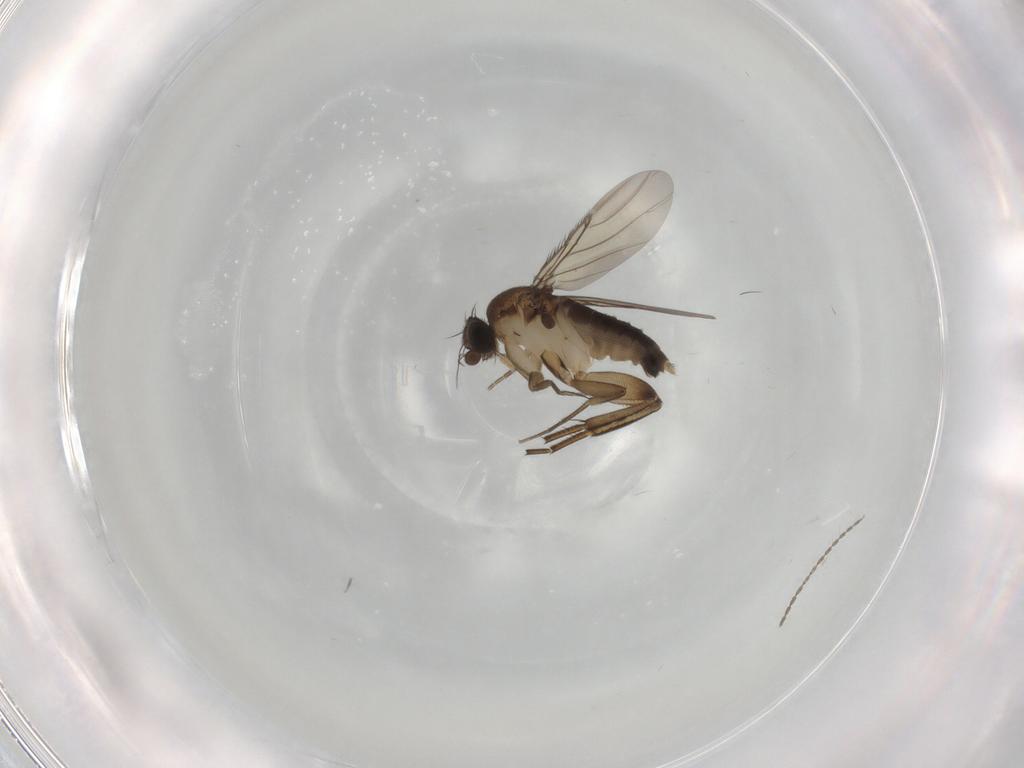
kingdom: Animalia
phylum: Arthropoda
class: Insecta
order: Diptera
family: Phoridae
